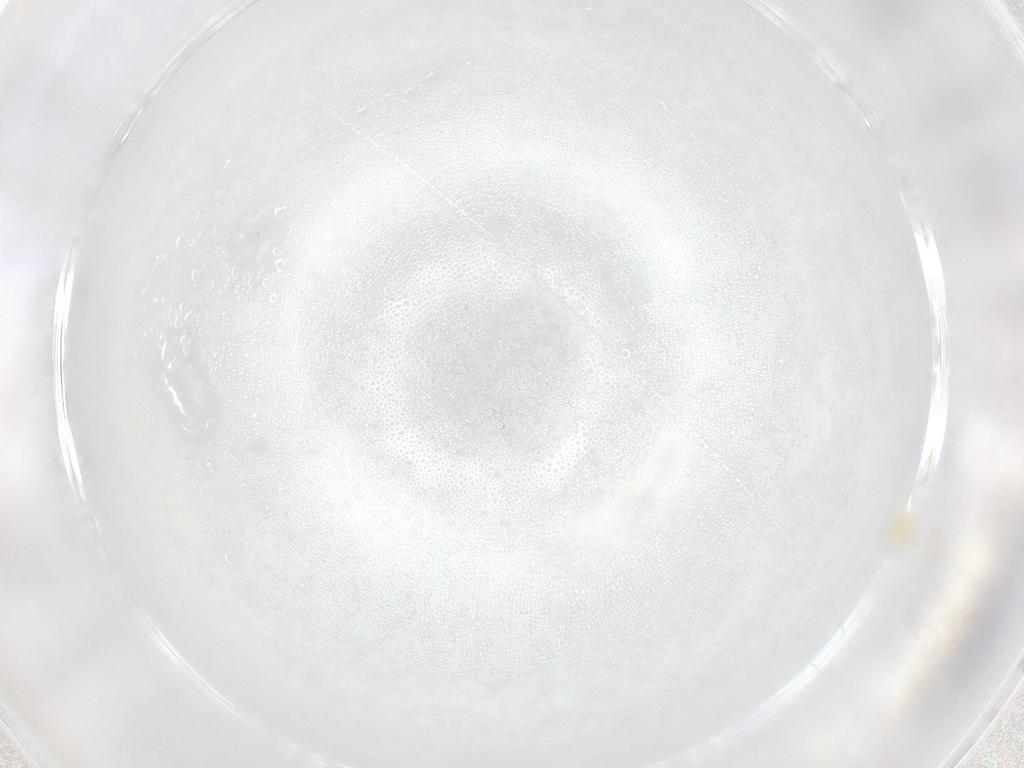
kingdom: Animalia
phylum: Arthropoda
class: Arachnida
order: Trombidiformes
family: Tetranychidae
